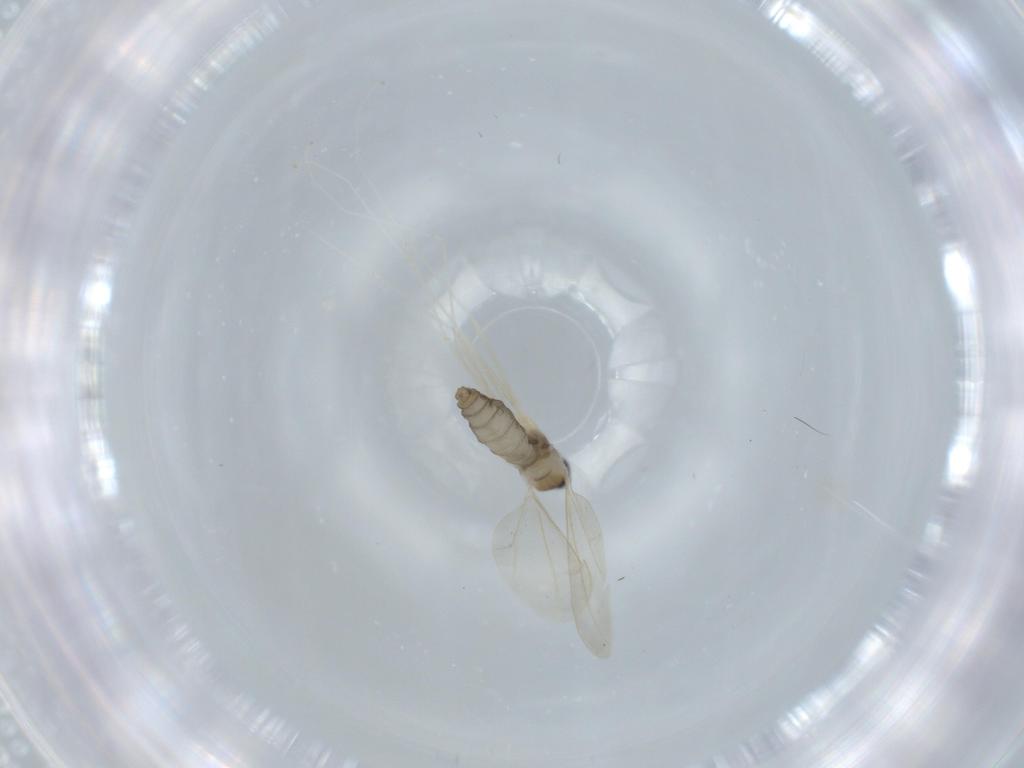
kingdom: Animalia
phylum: Arthropoda
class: Insecta
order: Diptera
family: Cecidomyiidae
